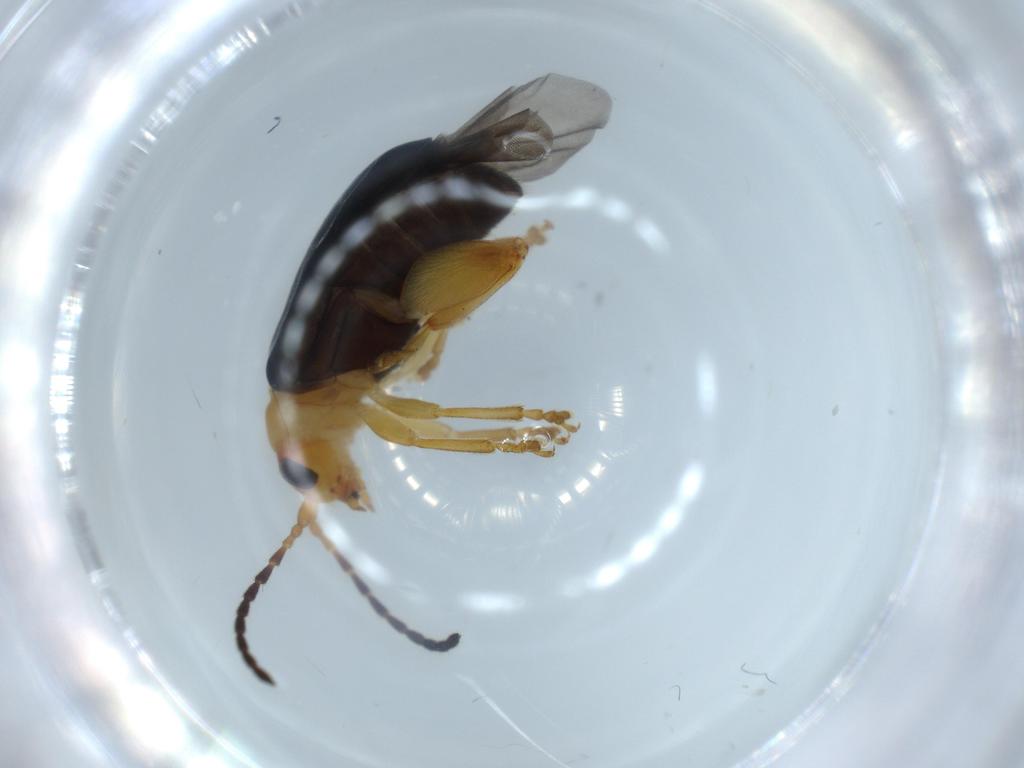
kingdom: Animalia
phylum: Arthropoda
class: Insecta
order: Coleoptera
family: Chrysomelidae
